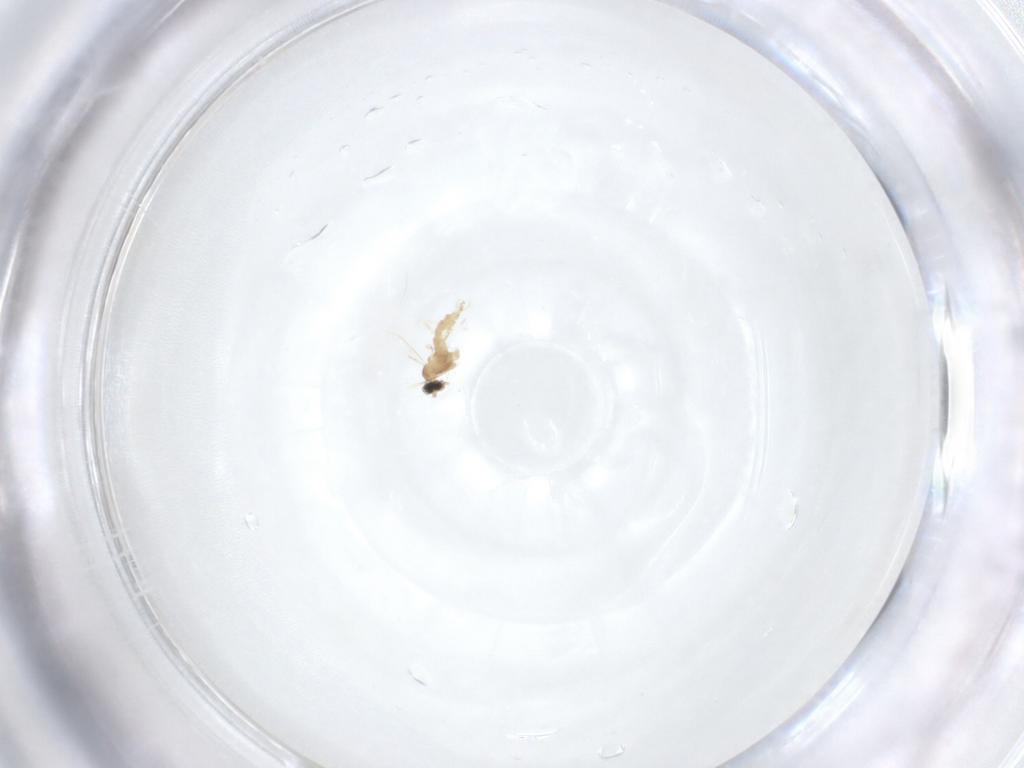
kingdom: Animalia
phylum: Arthropoda
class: Insecta
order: Diptera
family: Cecidomyiidae
